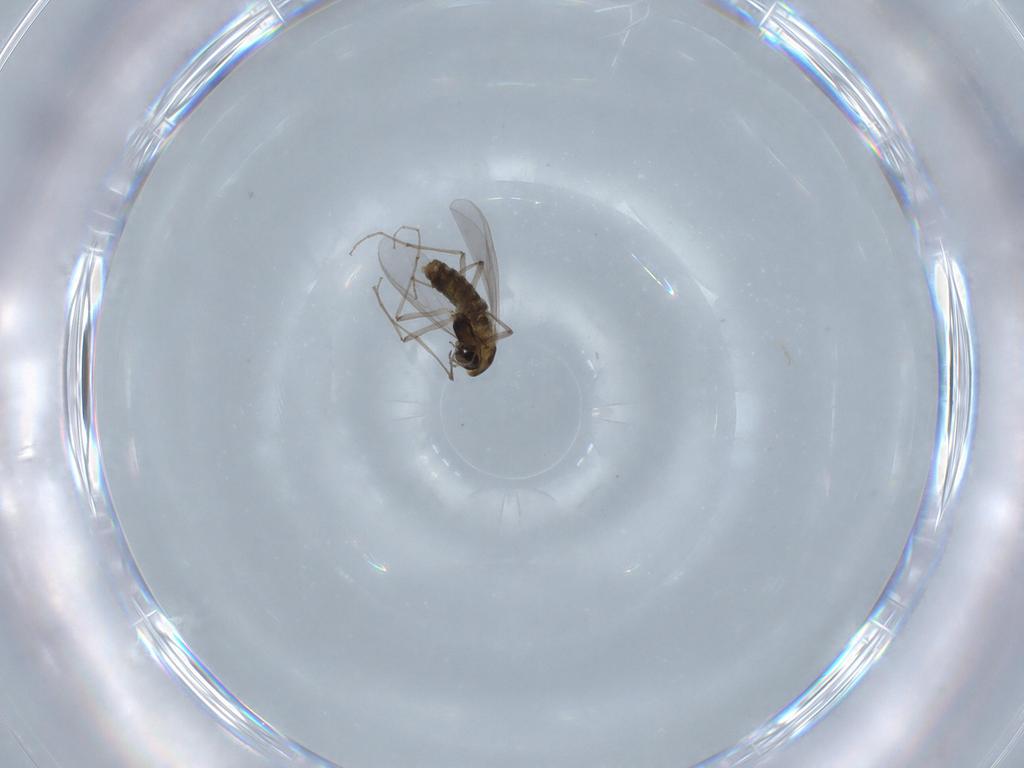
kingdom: Animalia
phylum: Arthropoda
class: Insecta
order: Diptera
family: Chironomidae
